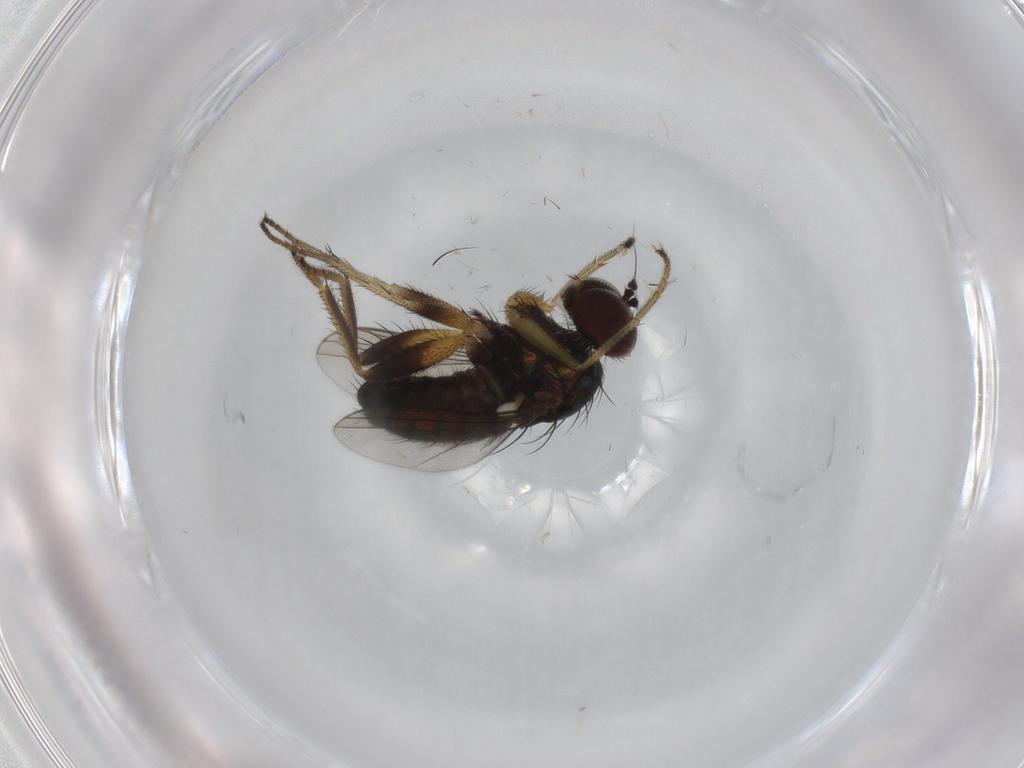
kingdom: Animalia
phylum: Arthropoda
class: Insecta
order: Diptera
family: Dolichopodidae
